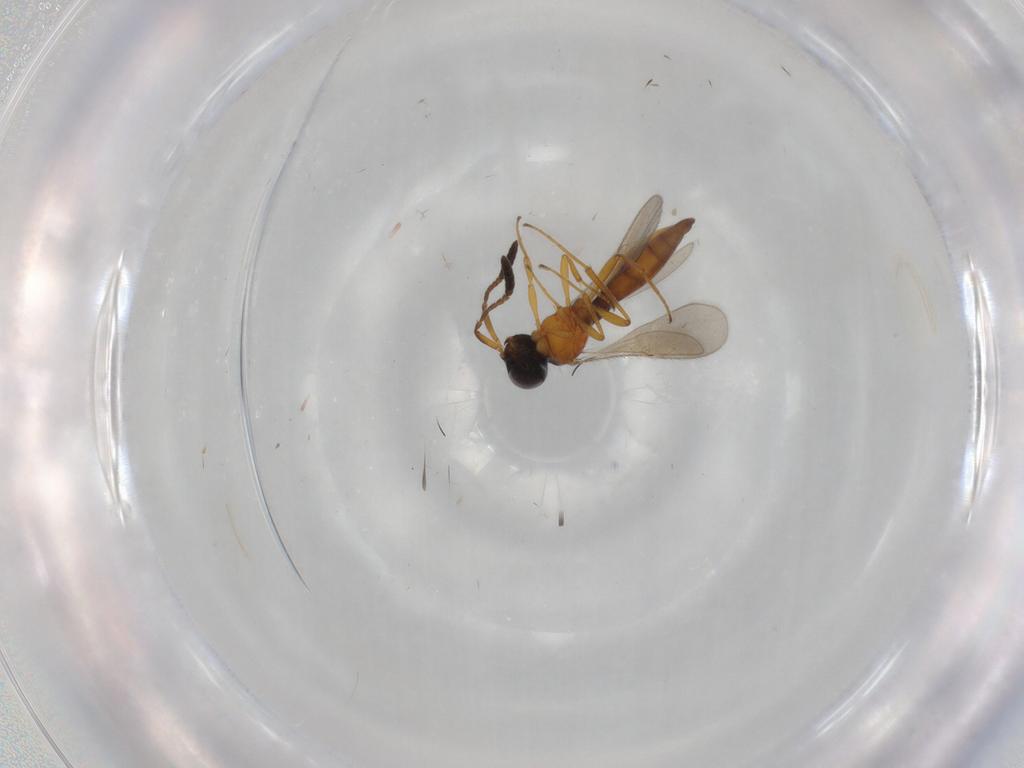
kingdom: Animalia
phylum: Arthropoda
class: Insecta
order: Hymenoptera
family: Scelionidae
